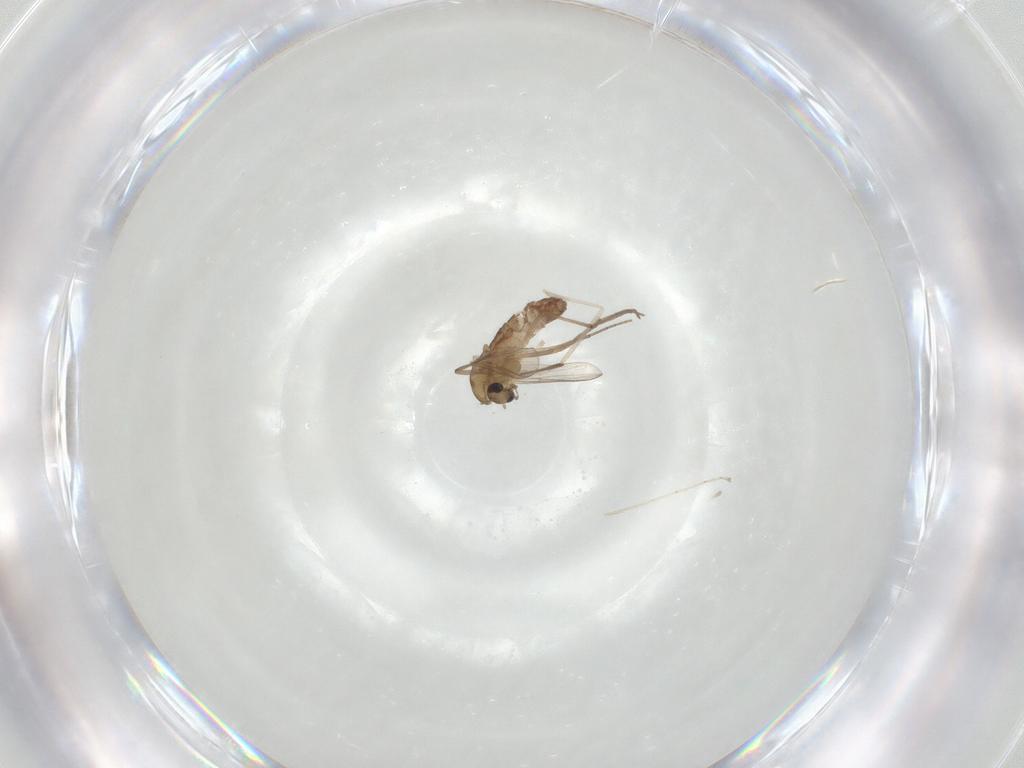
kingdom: Animalia
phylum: Arthropoda
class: Insecta
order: Diptera
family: Chironomidae
